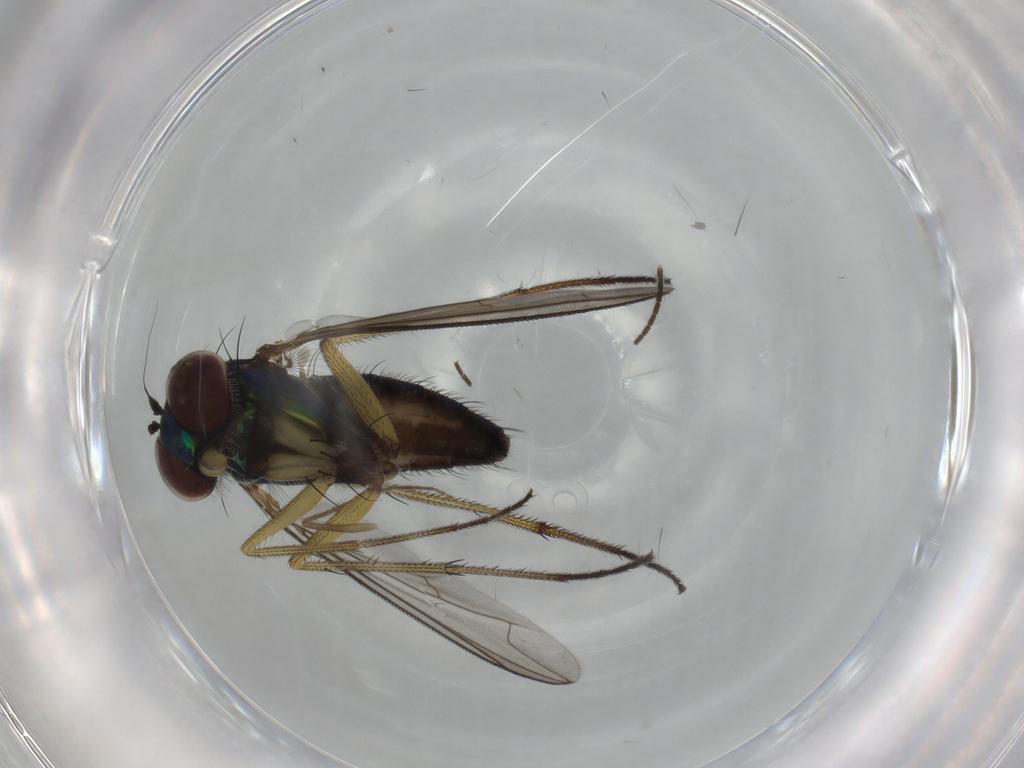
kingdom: Animalia
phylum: Arthropoda
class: Insecta
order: Diptera
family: Dolichopodidae
